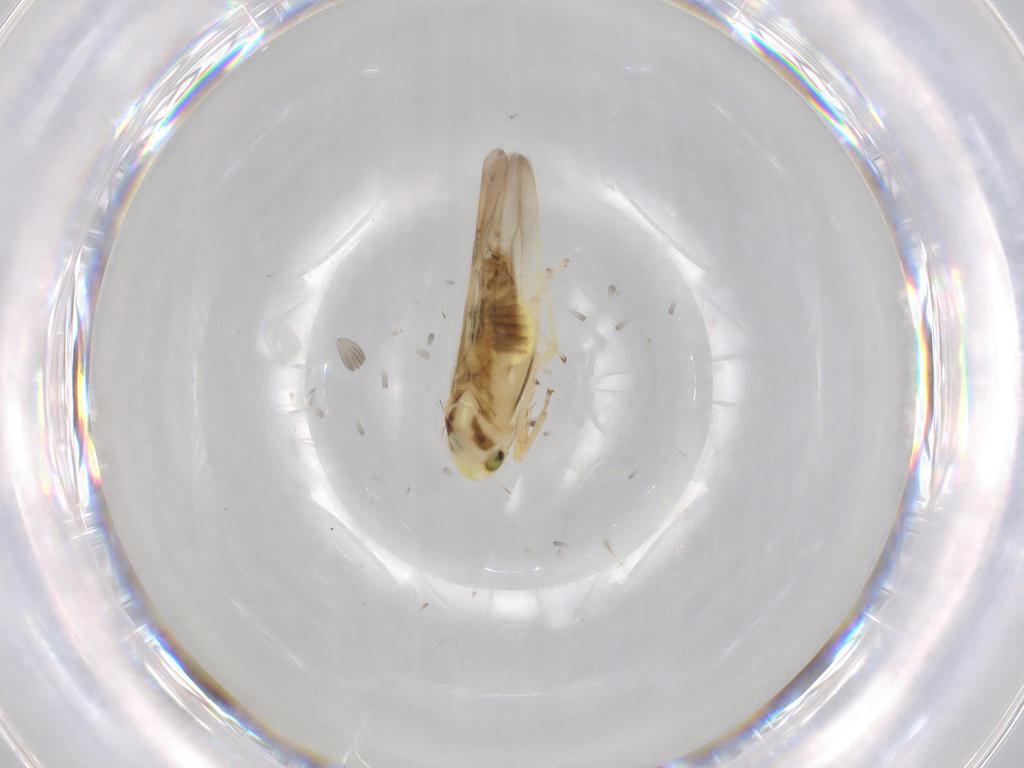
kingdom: Animalia
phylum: Arthropoda
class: Insecta
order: Hemiptera
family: Cicadellidae
